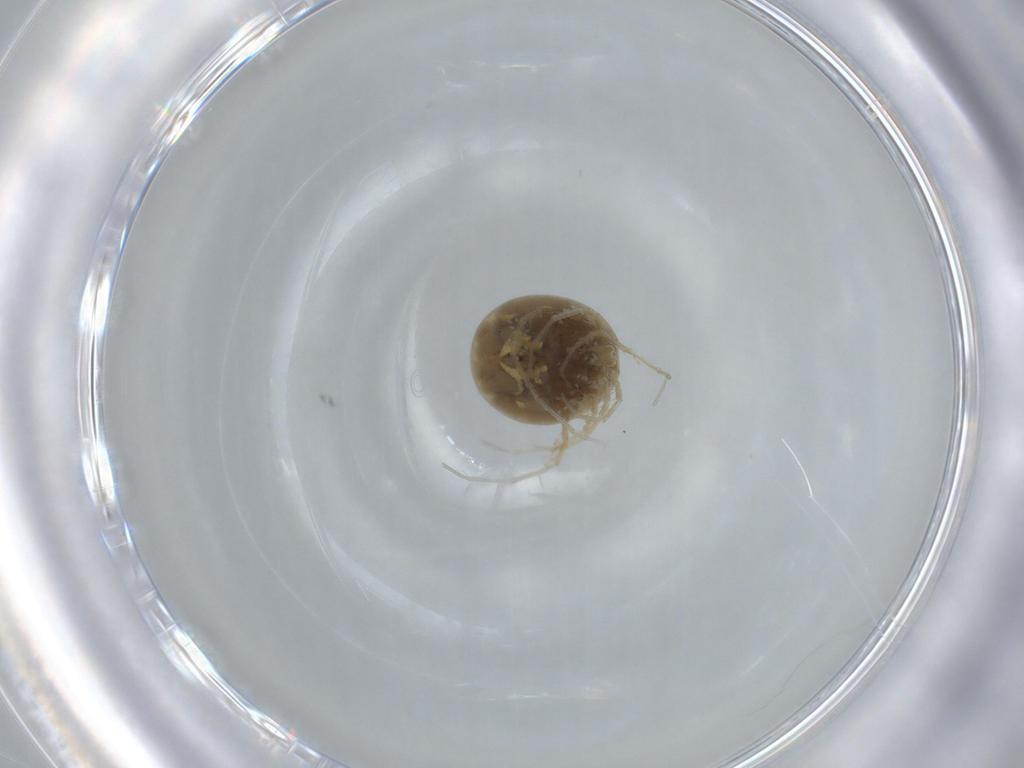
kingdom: Animalia
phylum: Arthropoda
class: Arachnida
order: Trombidiformes
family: Hygrobatidae
